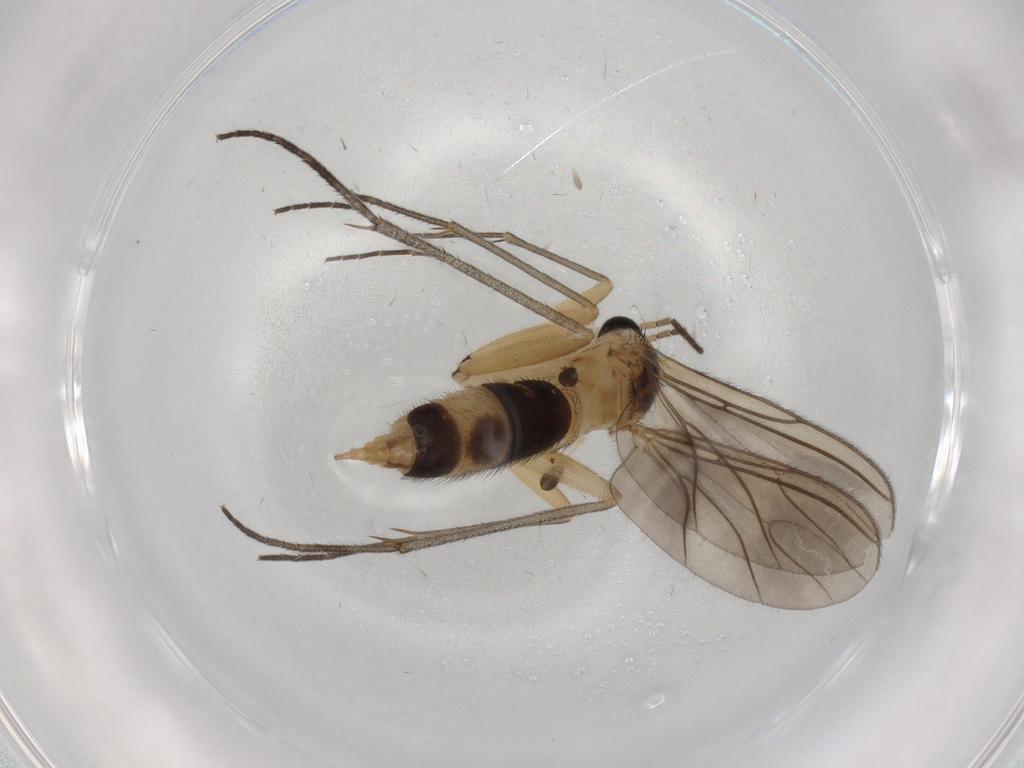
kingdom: Animalia
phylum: Arthropoda
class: Insecta
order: Diptera
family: Sciaridae
